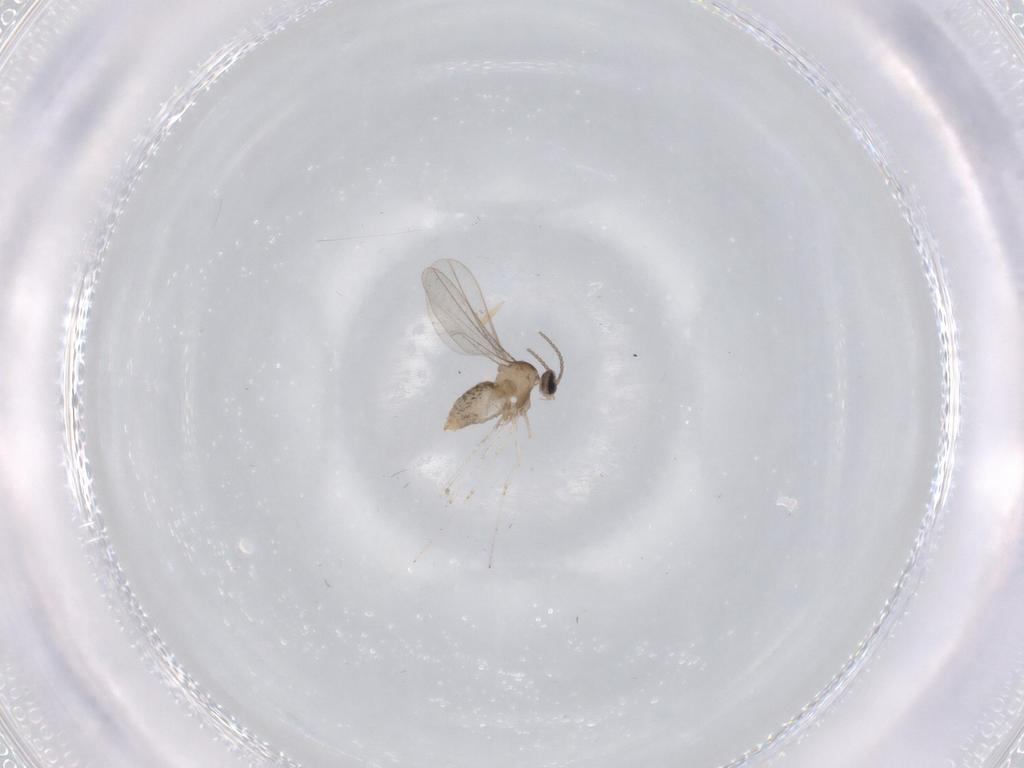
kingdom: Animalia
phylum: Arthropoda
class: Insecta
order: Diptera
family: Cecidomyiidae
